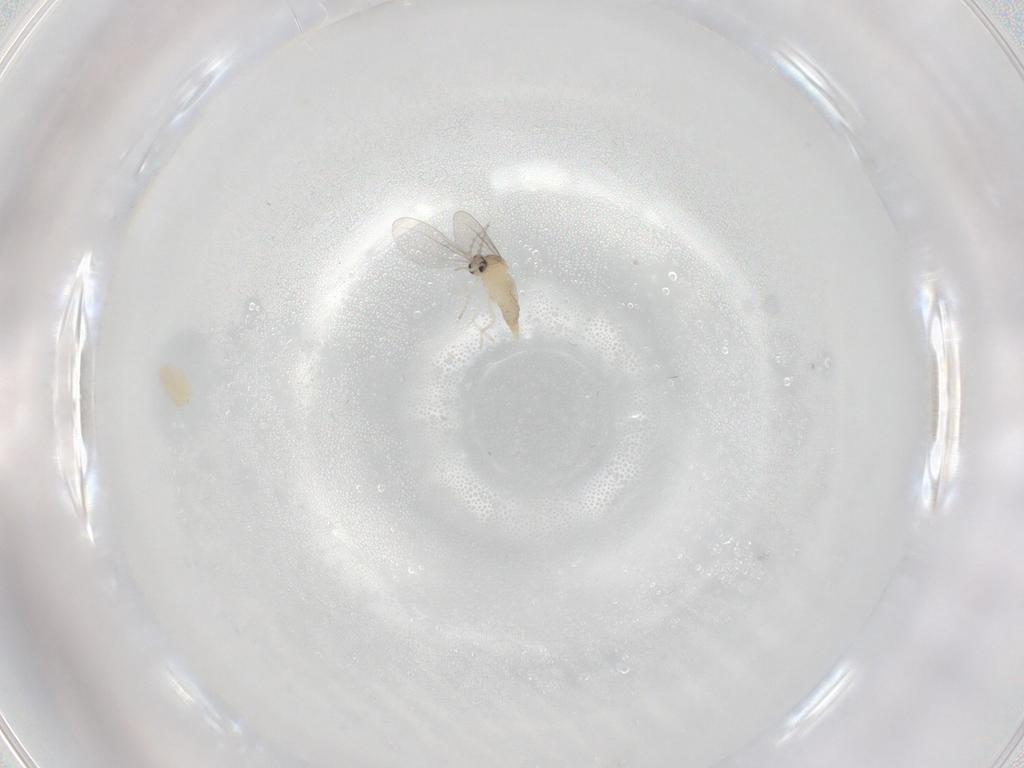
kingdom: Animalia
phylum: Arthropoda
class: Insecta
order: Diptera
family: Cecidomyiidae
